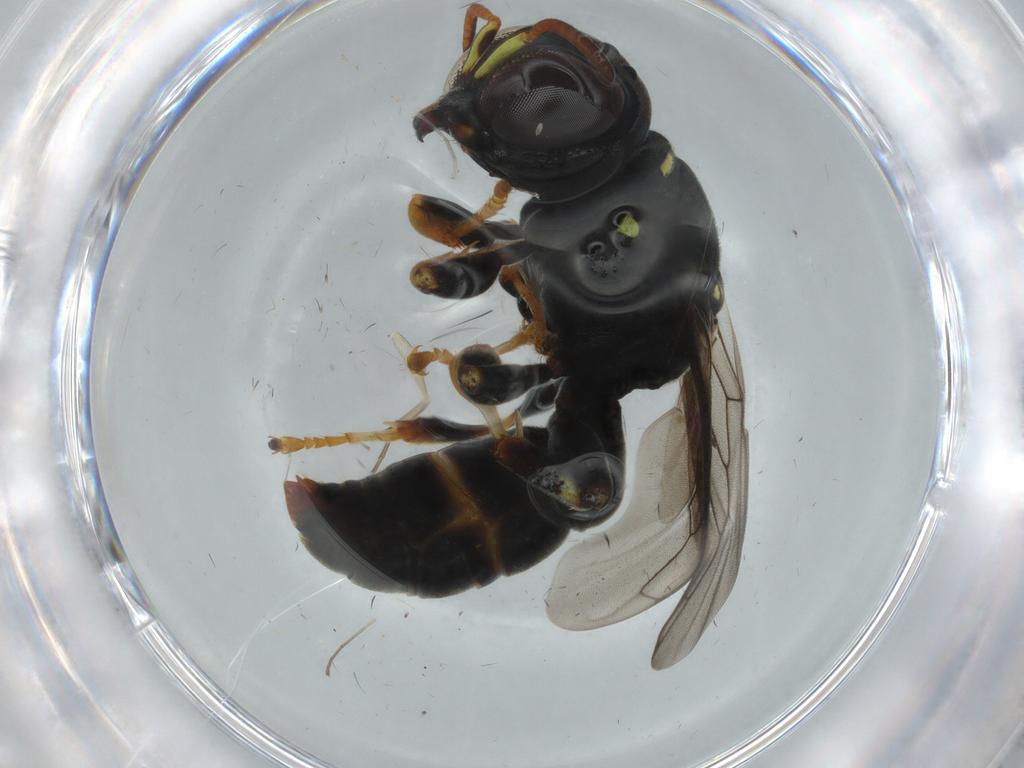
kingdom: Animalia
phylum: Arthropoda
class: Insecta
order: Hymenoptera
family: Crabronidae
